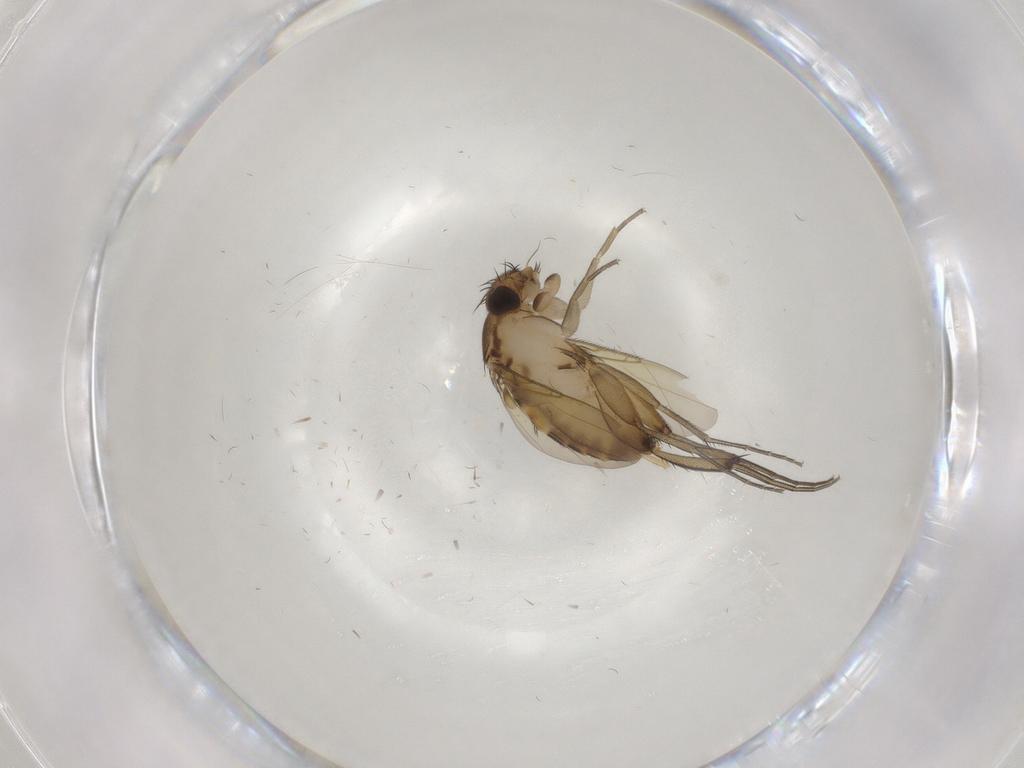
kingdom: Animalia
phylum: Arthropoda
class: Insecta
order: Diptera
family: Phoridae
